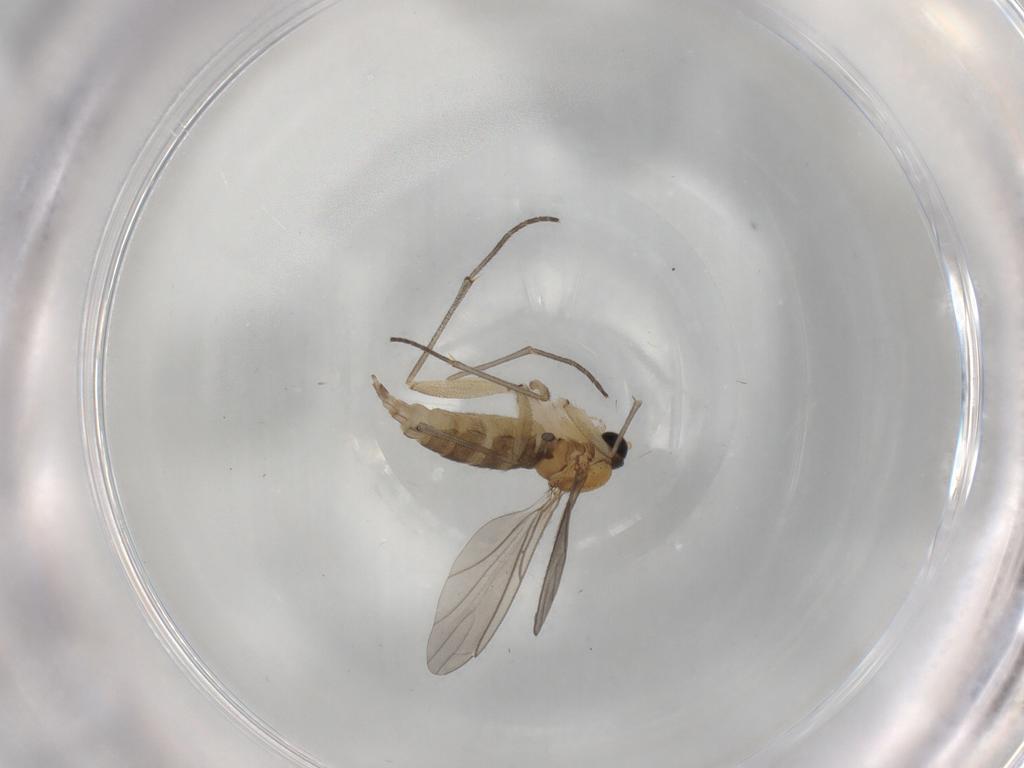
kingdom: Animalia
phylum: Arthropoda
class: Insecta
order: Diptera
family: Sciaridae
